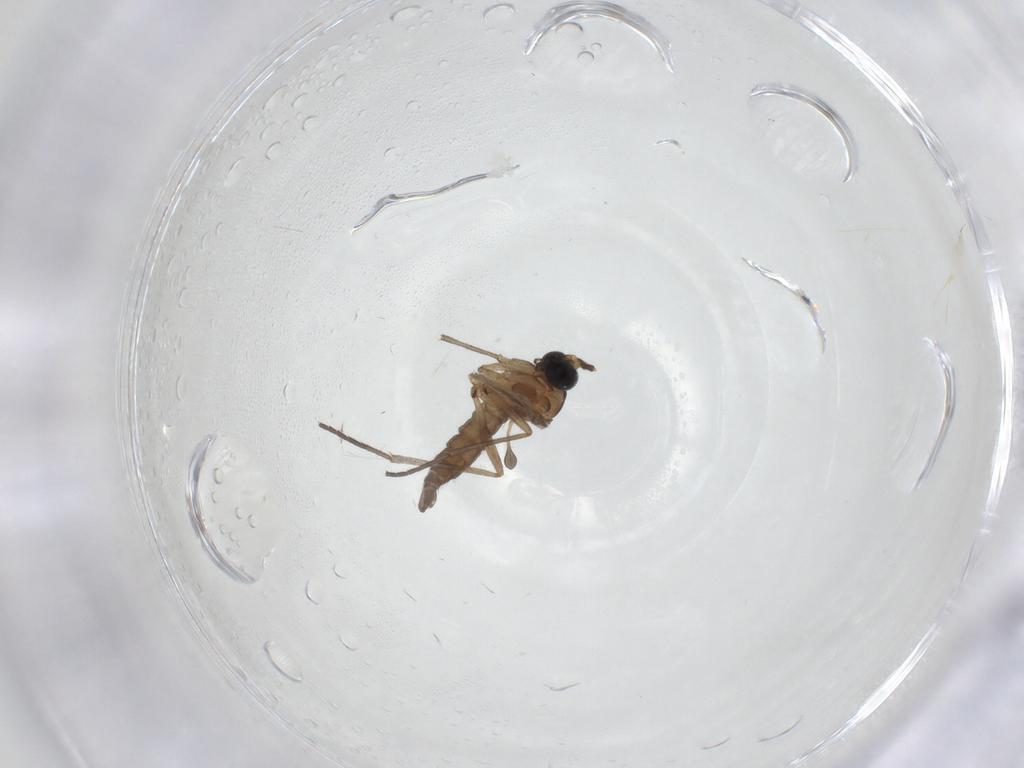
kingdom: Animalia
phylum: Arthropoda
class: Insecta
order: Diptera
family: Sciaridae
